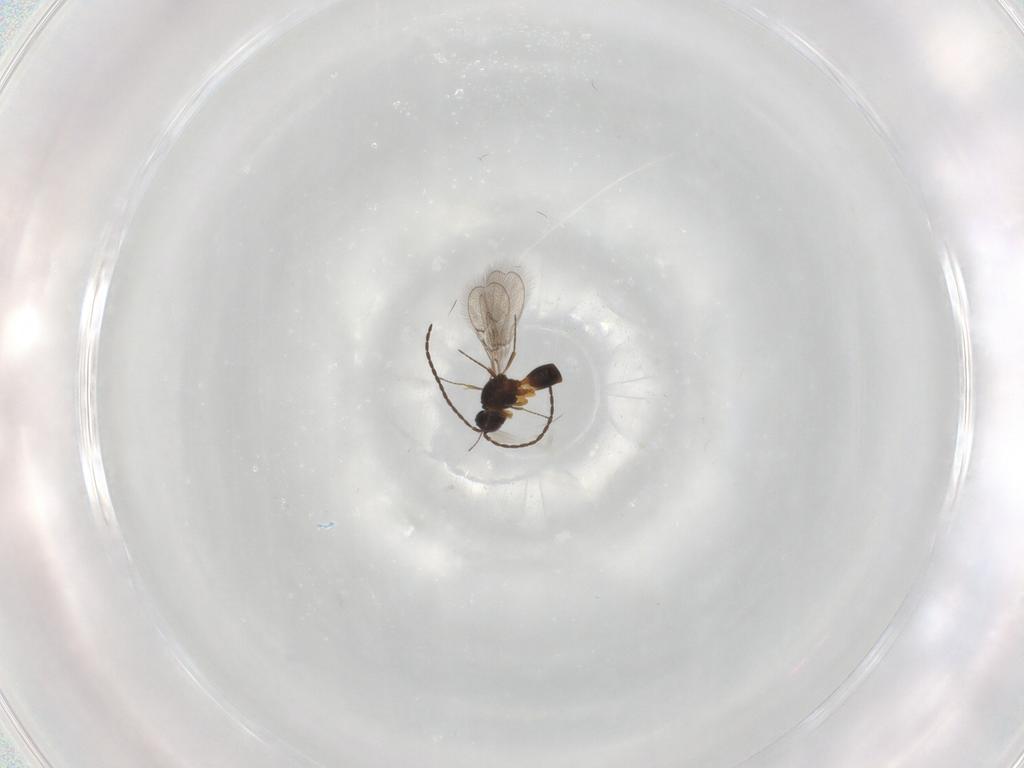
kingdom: Animalia
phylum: Arthropoda
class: Insecta
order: Hymenoptera
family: Figitidae
